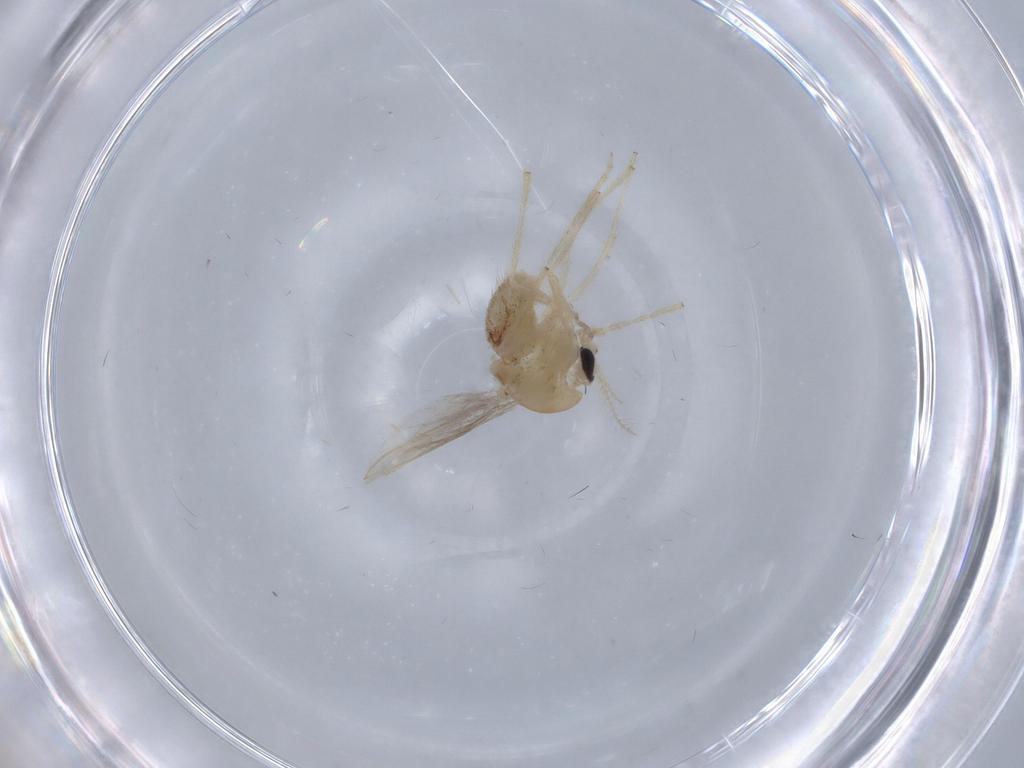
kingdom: Animalia
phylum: Arthropoda
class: Insecta
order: Diptera
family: Chironomidae
